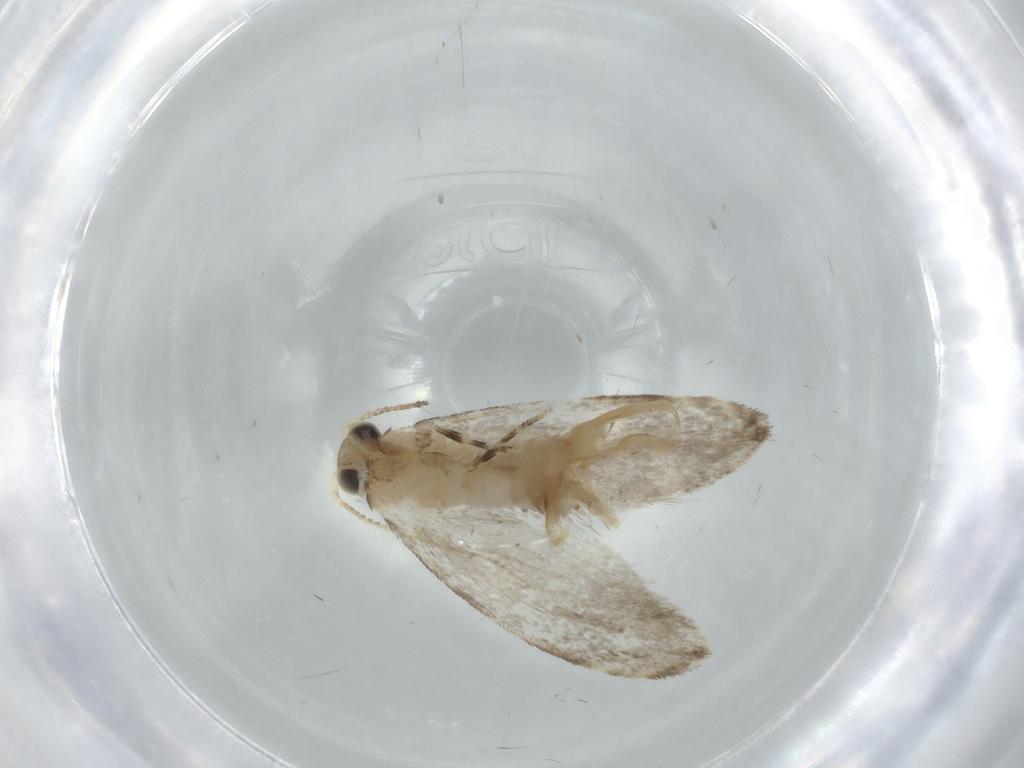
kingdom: Animalia
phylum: Arthropoda
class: Insecta
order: Lepidoptera
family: Tineidae
